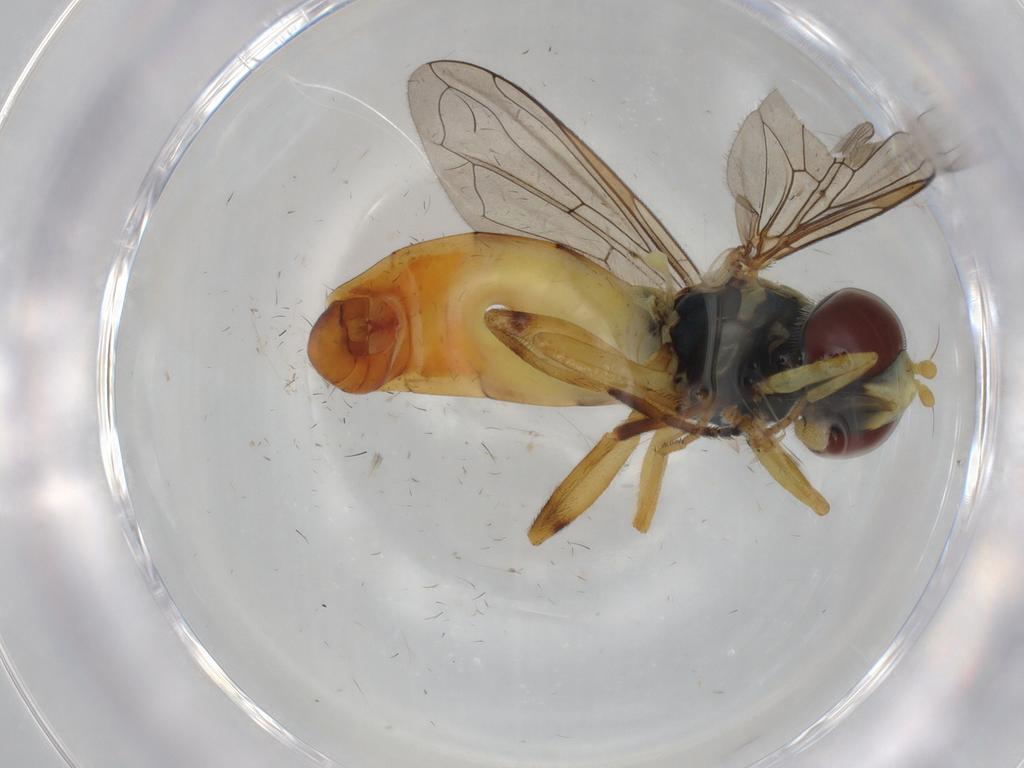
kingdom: Animalia
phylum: Arthropoda
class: Insecta
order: Diptera
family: Syrphidae
